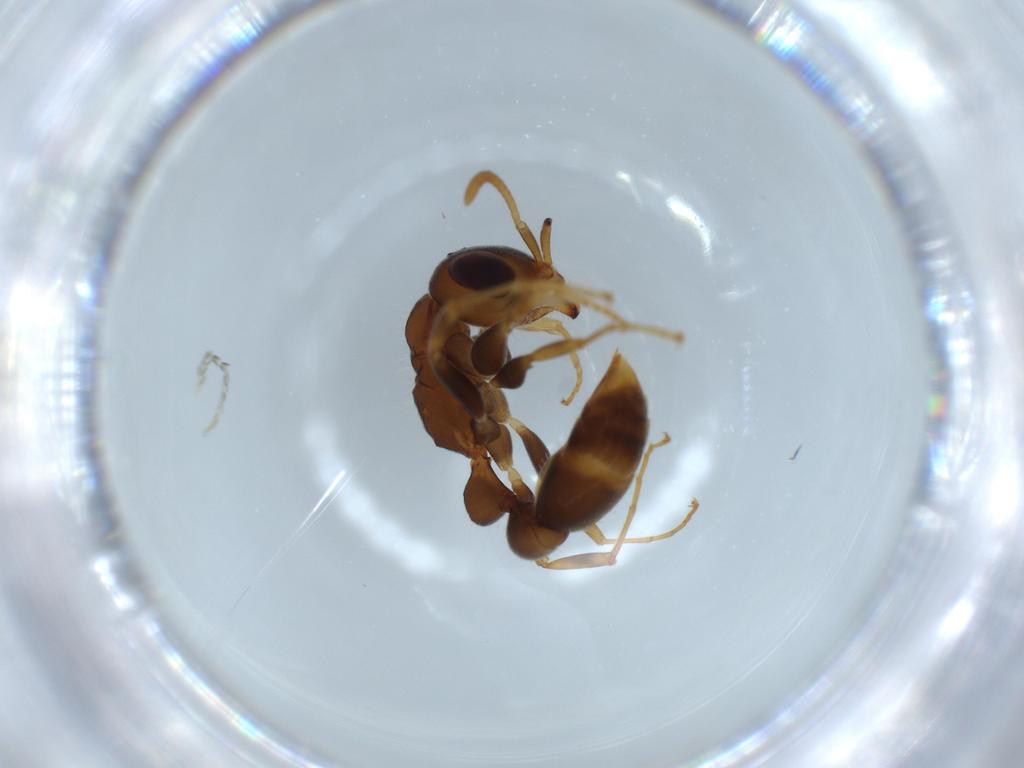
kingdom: Animalia
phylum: Arthropoda
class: Insecta
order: Hymenoptera
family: Formicidae
